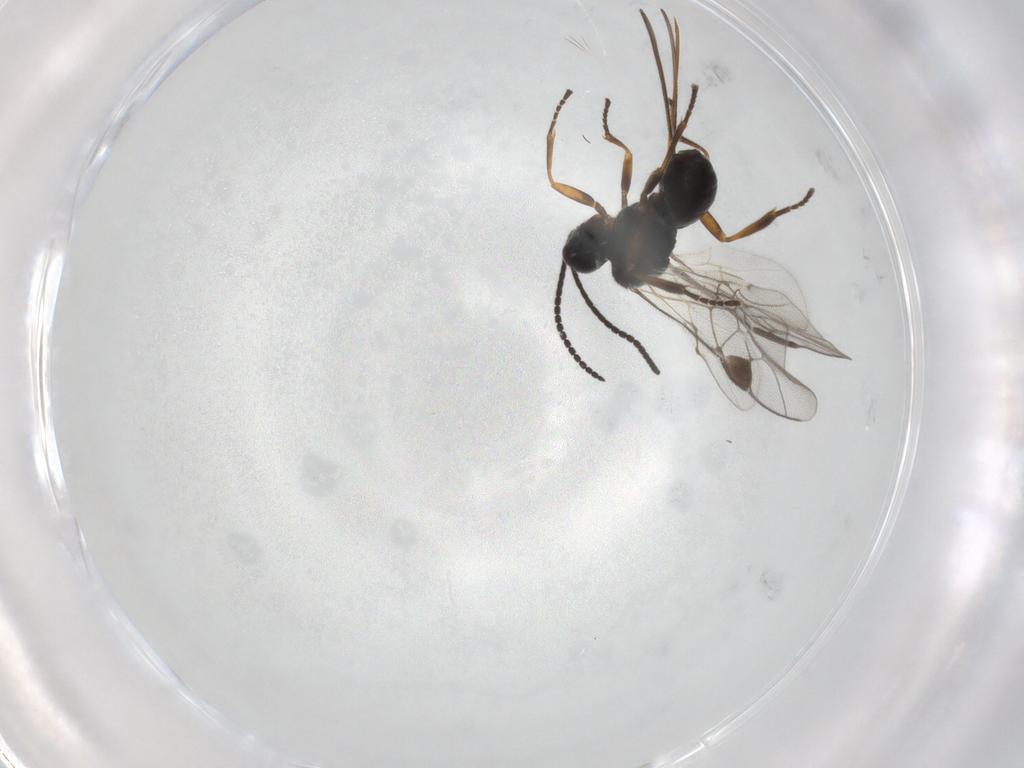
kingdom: Animalia
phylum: Arthropoda
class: Insecta
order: Hymenoptera
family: Braconidae
